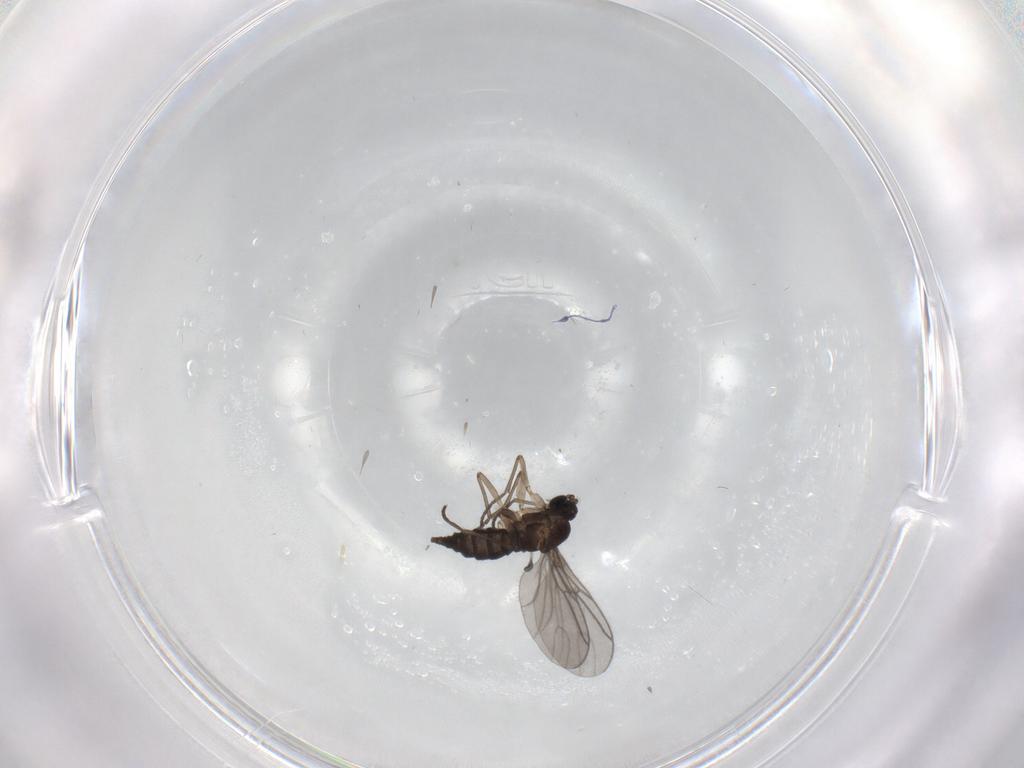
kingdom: Animalia
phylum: Arthropoda
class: Insecta
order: Diptera
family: Sciaridae
